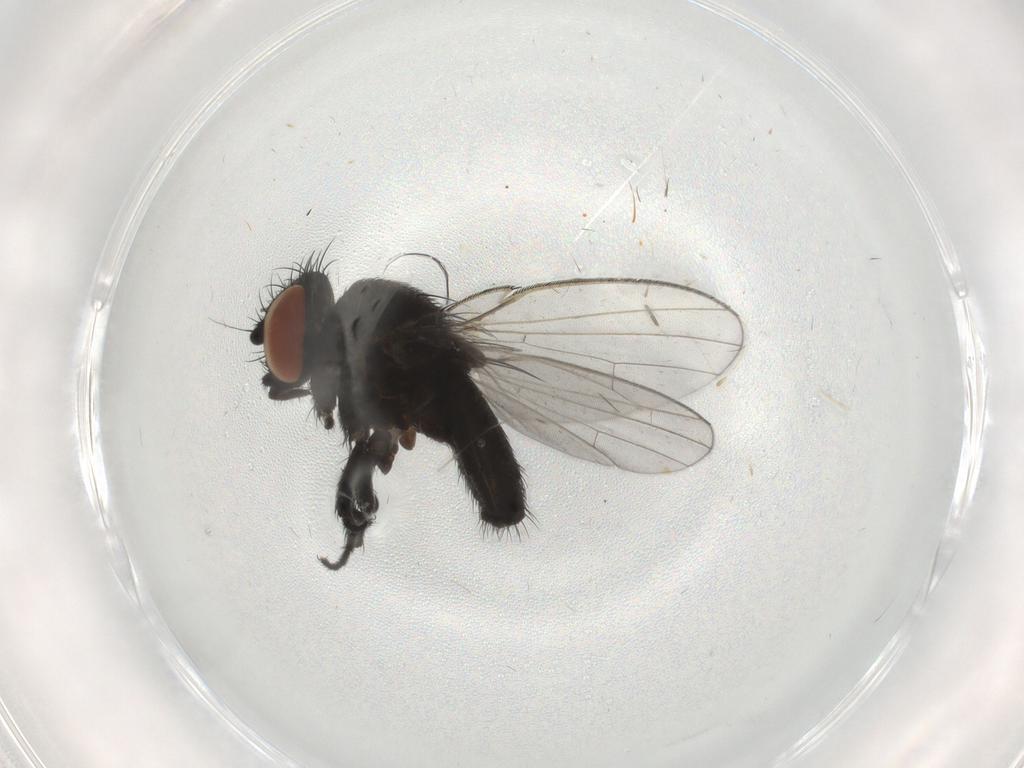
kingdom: Animalia
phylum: Arthropoda
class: Insecta
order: Diptera
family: Milichiidae
